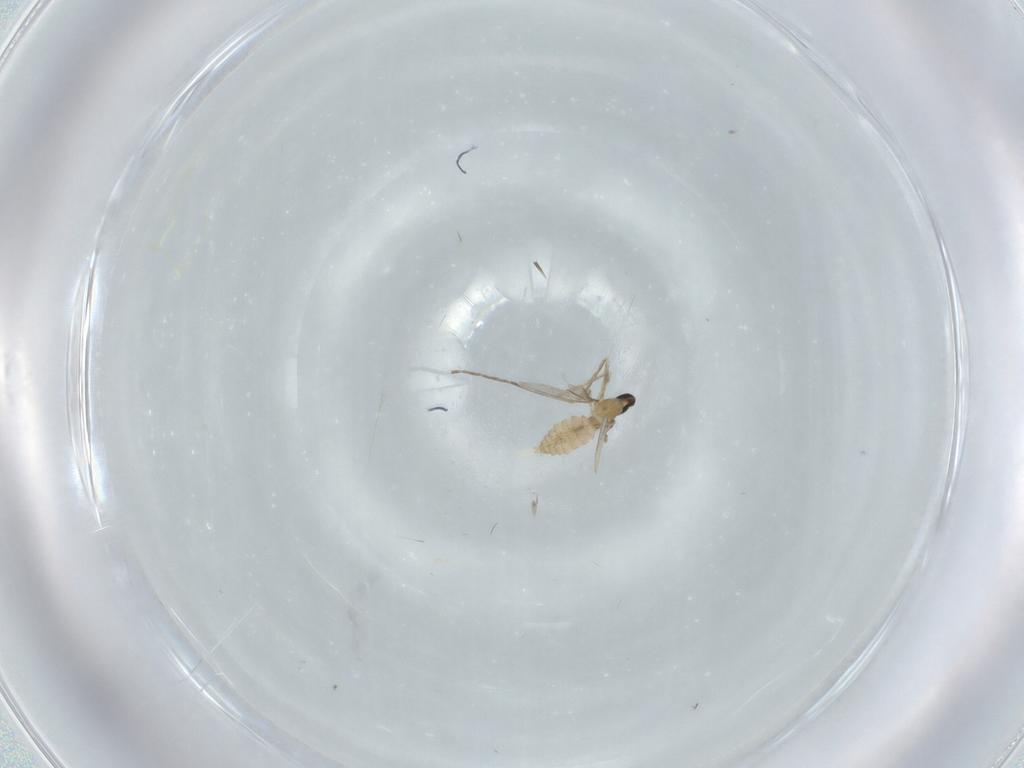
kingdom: Animalia
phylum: Arthropoda
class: Insecta
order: Diptera
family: Cecidomyiidae
